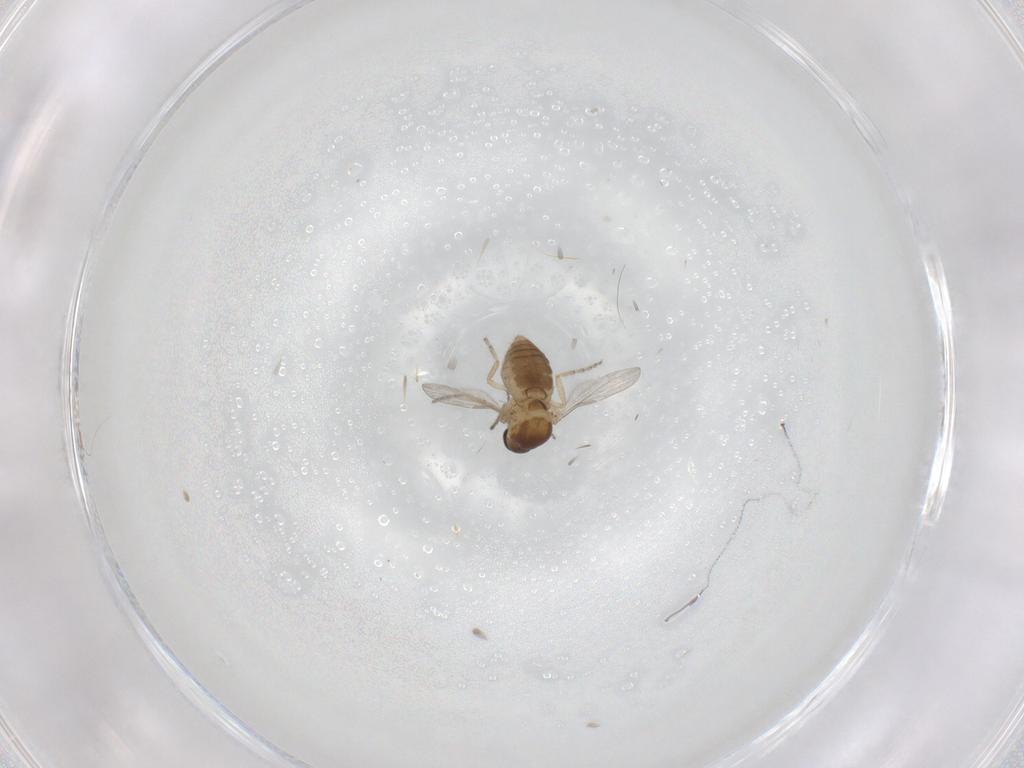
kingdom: Animalia
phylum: Arthropoda
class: Insecta
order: Diptera
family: Ceratopogonidae
